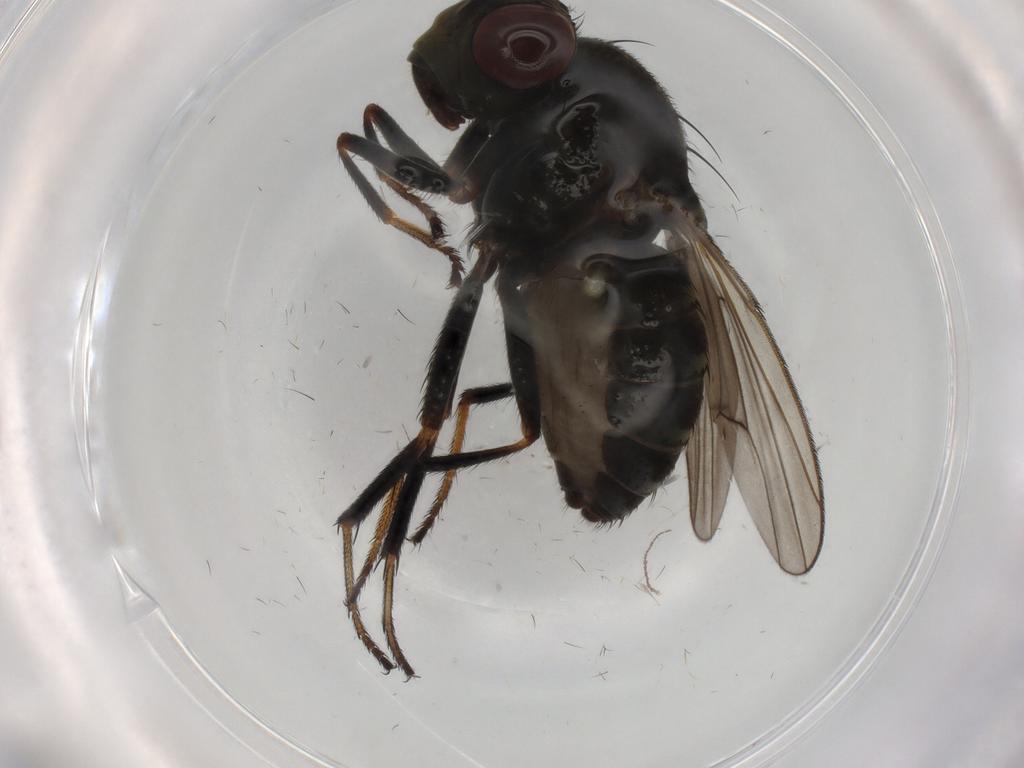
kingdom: Animalia
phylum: Arthropoda
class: Insecta
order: Diptera
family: Ephydridae
